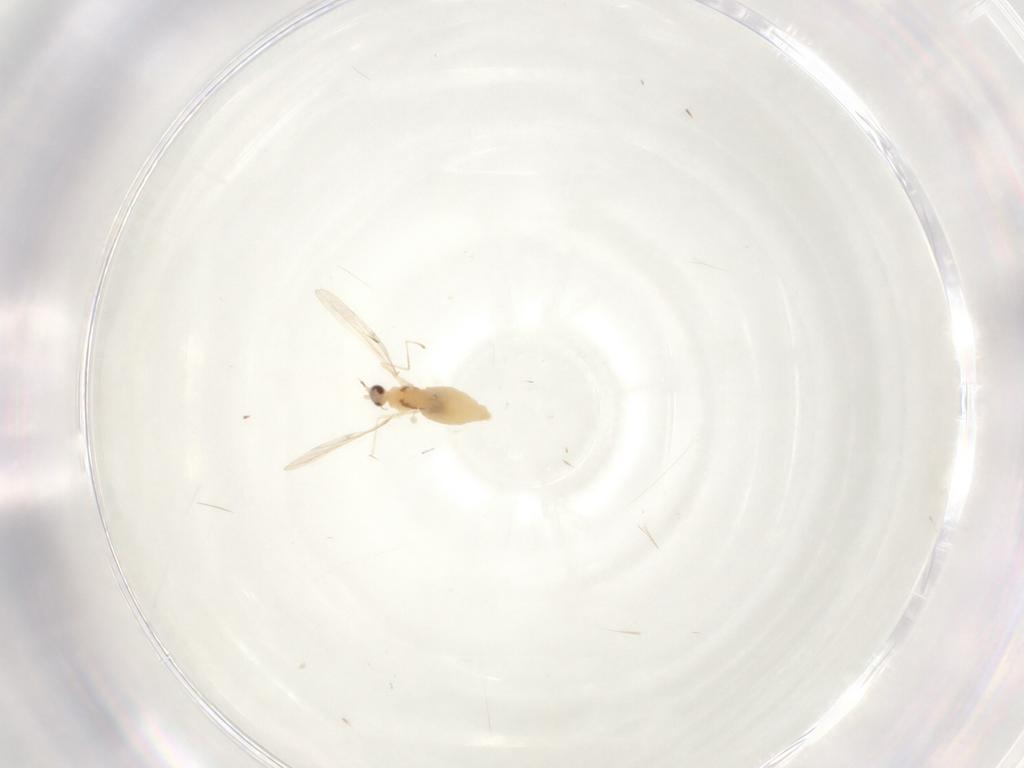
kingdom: Animalia
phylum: Arthropoda
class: Insecta
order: Diptera
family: Cecidomyiidae
